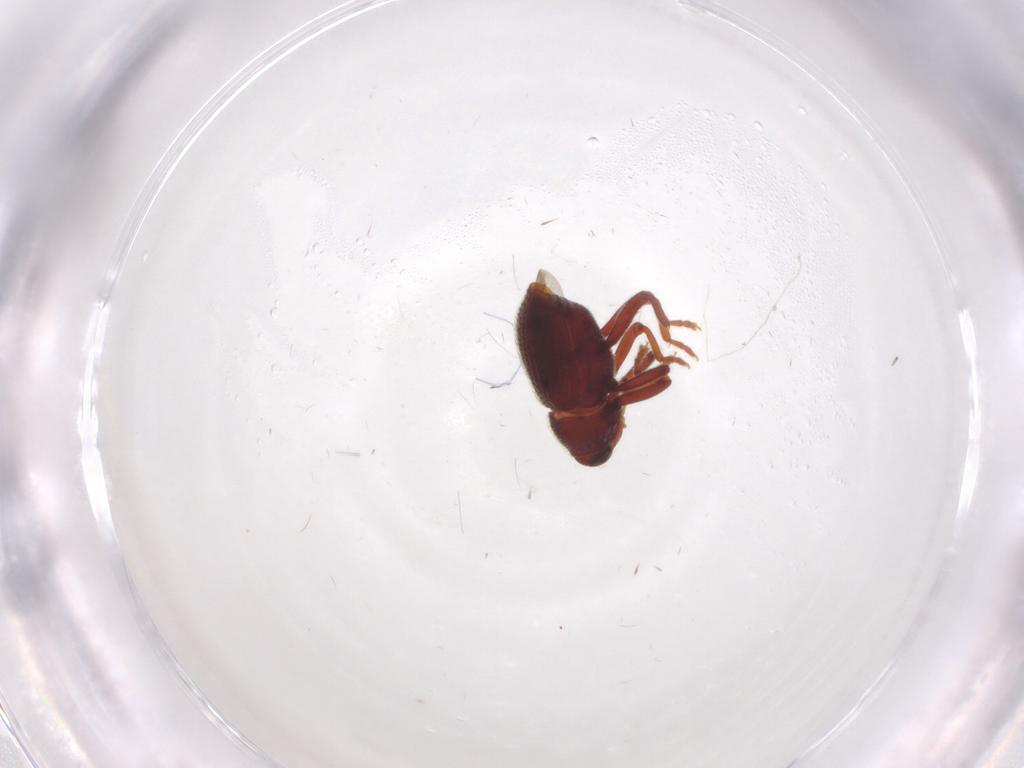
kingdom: Animalia
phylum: Arthropoda
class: Insecta
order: Coleoptera
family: Curculionidae
